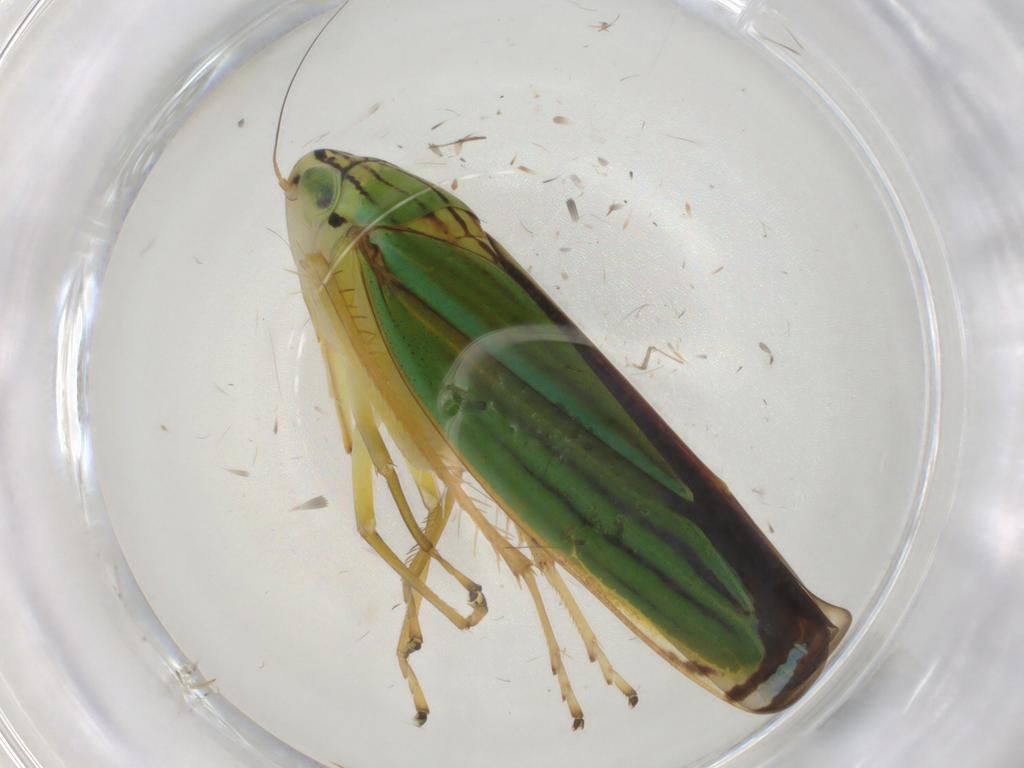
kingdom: Animalia
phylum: Arthropoda
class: Insecta
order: Hemiptera
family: Cicadellidae
